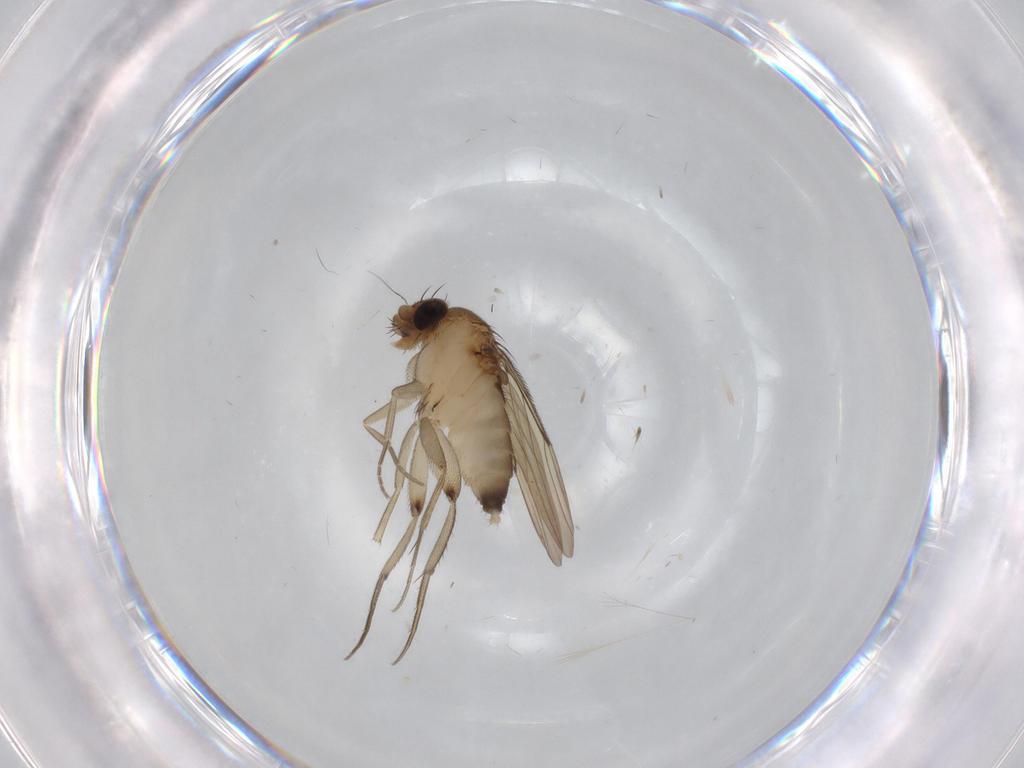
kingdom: Animalia
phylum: Arthropoda
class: Insecta
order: Diptera
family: Phoridae
